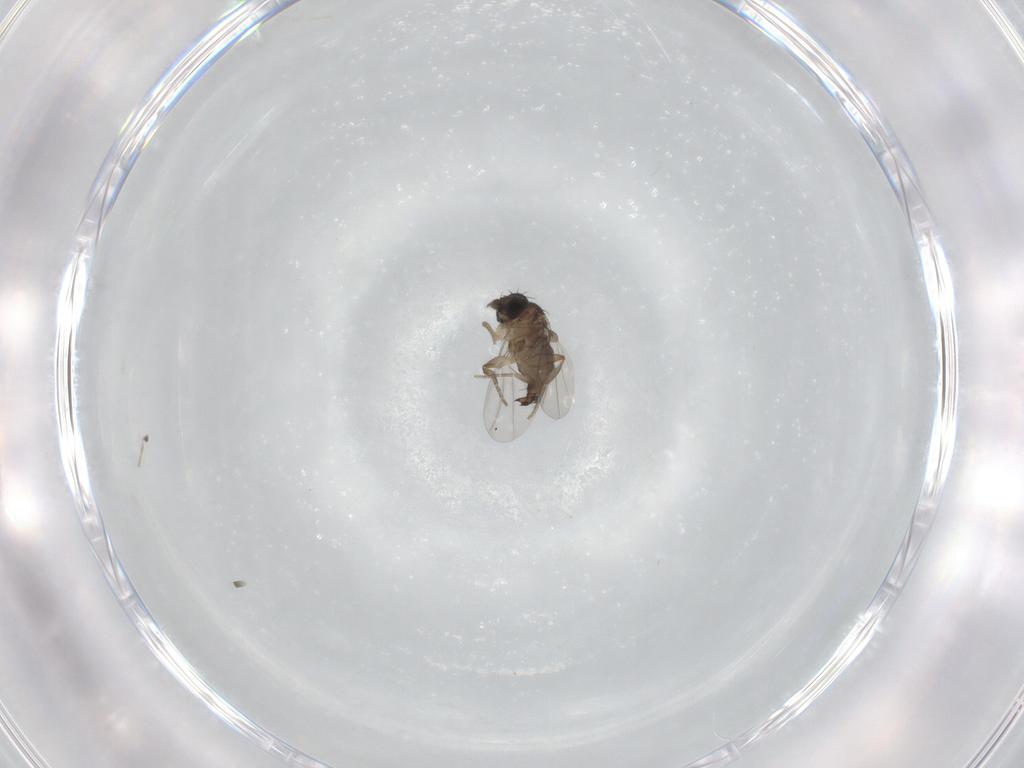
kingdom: Animalia
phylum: Arthropoda
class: Insecta
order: Diptera
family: Phoridae
